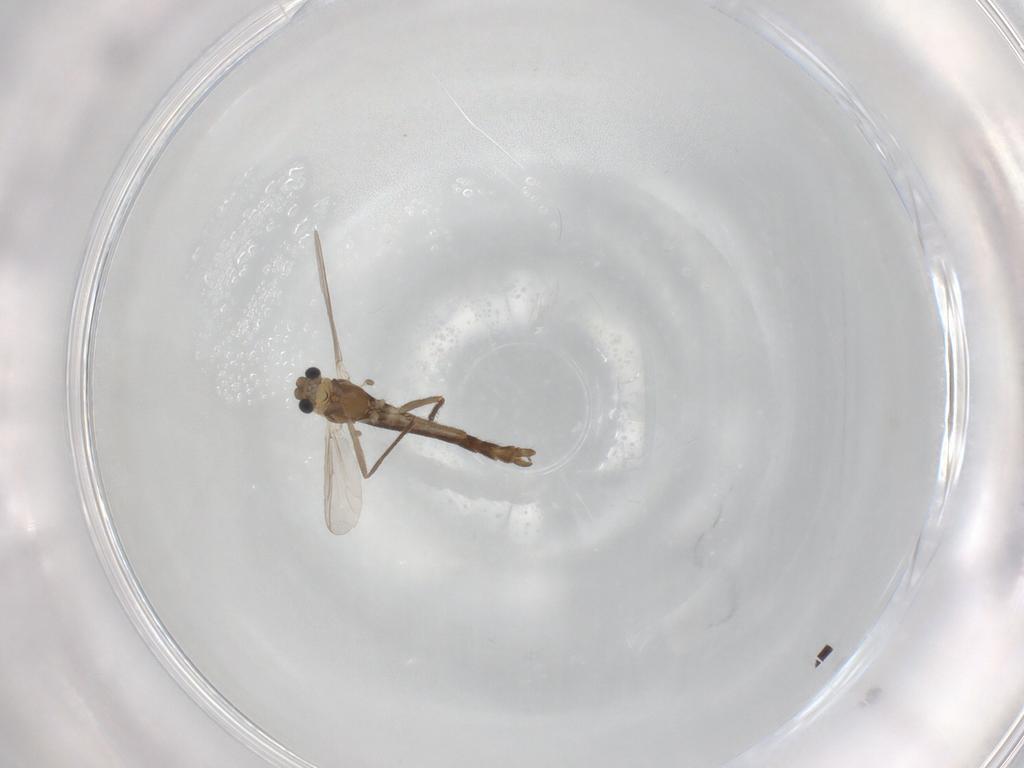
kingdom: Animalia
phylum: Arthropoda
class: Insecta
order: Diptera
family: Chironomidae
